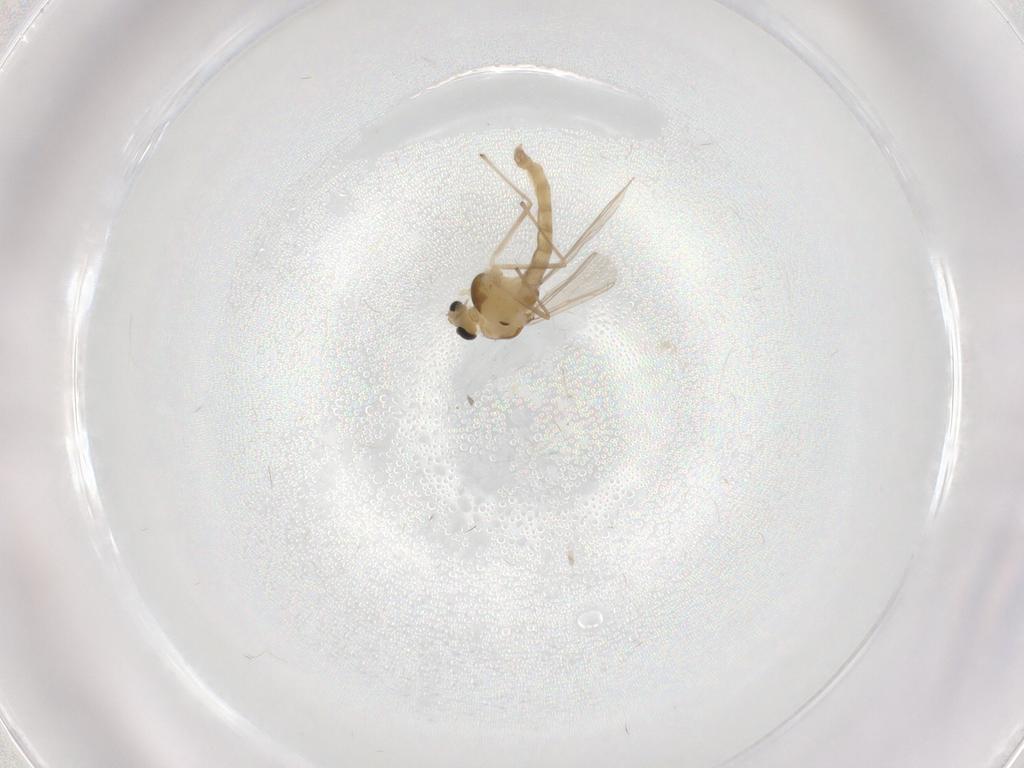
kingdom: Animalia
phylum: Arthropoda
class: Insecta
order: Diptera
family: Chironomidae
